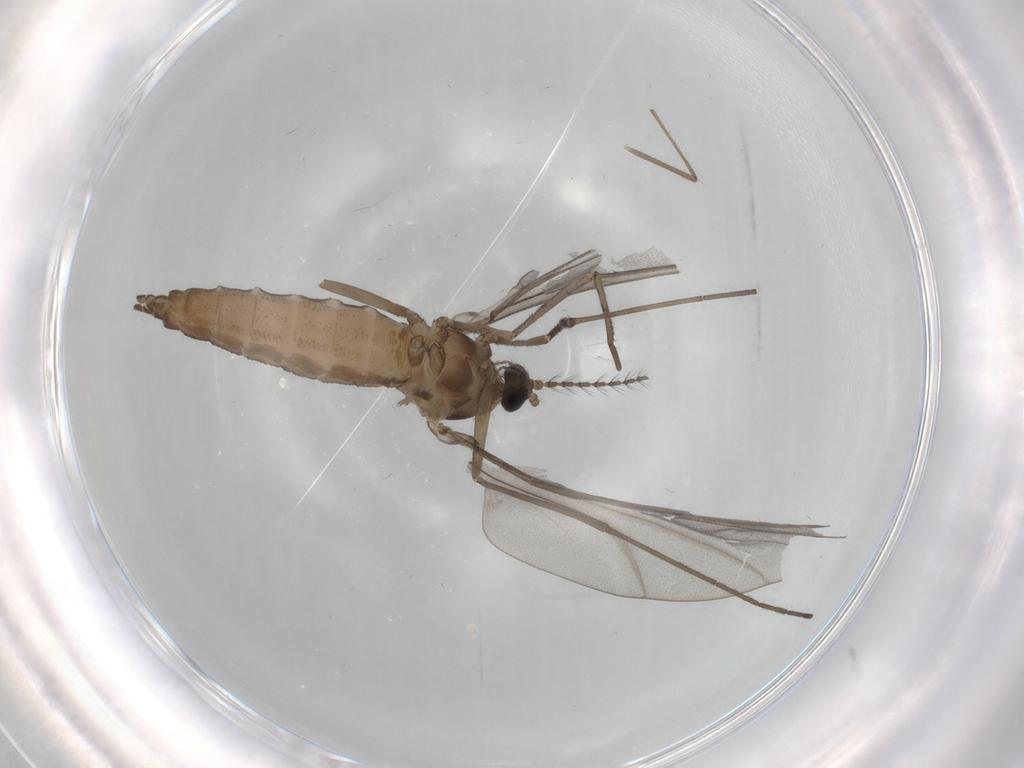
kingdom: Animalia
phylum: Arthropoda
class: Insecta
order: Diptera
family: Cecidomyiidae
